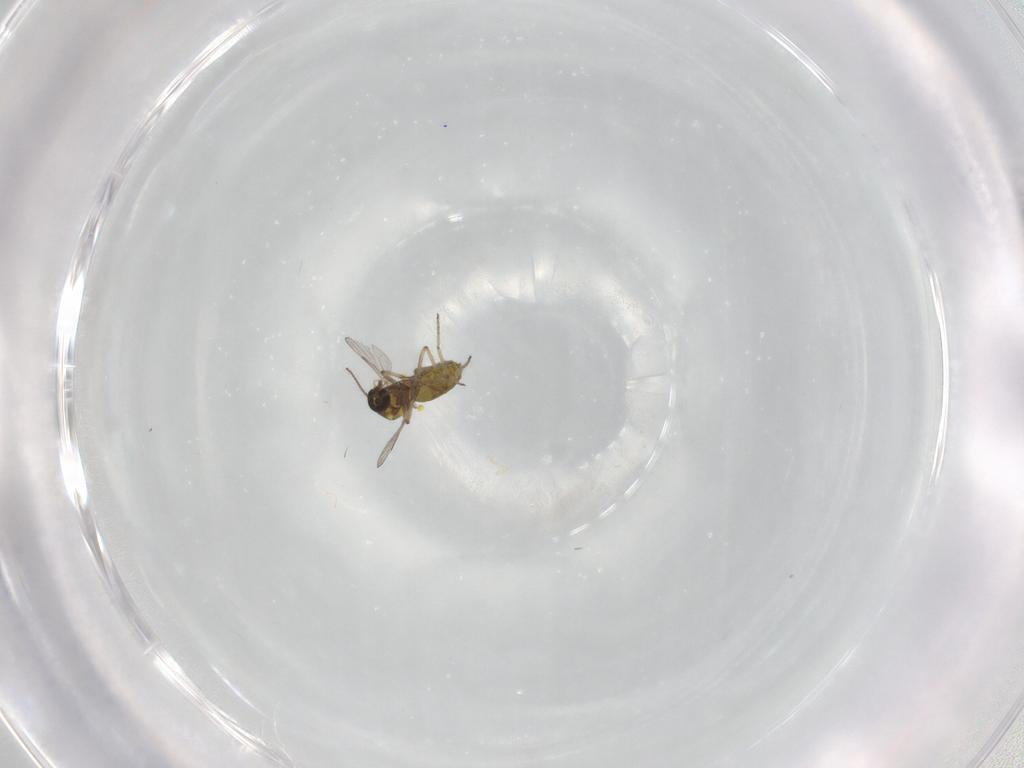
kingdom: Animalia
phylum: Arthropoda
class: Insecta
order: Diptera
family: Ceratopogonidae
